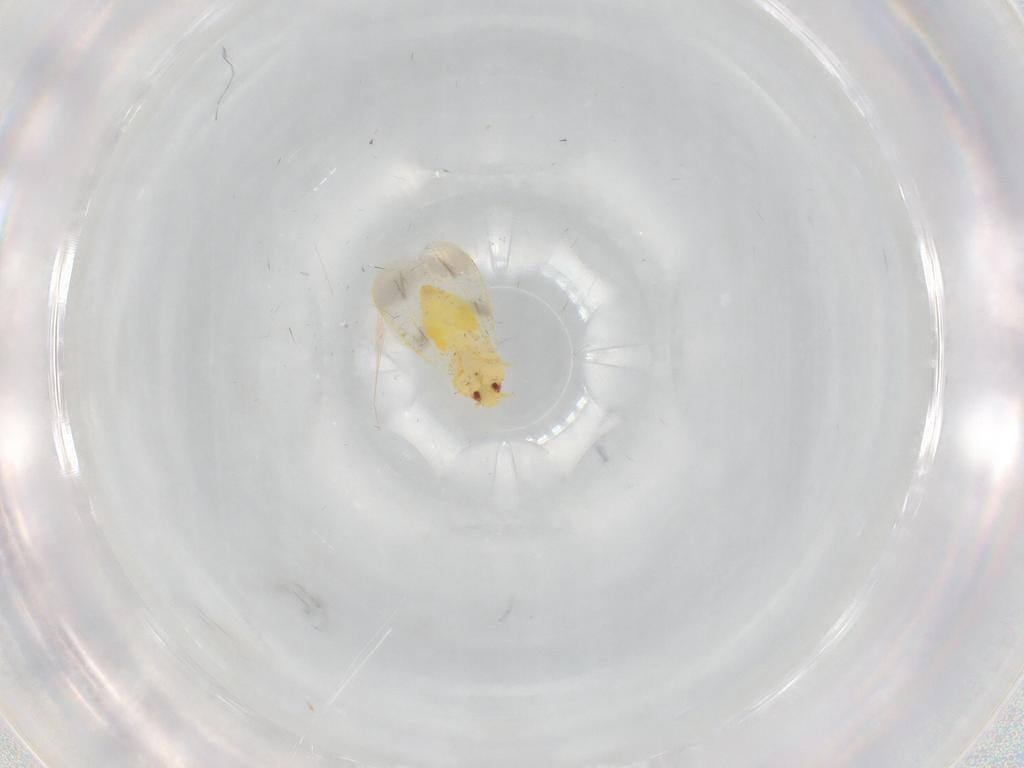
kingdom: Animalia
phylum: Arthropoda
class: Insecta
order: Hemiptera
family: Aleyrodidae
